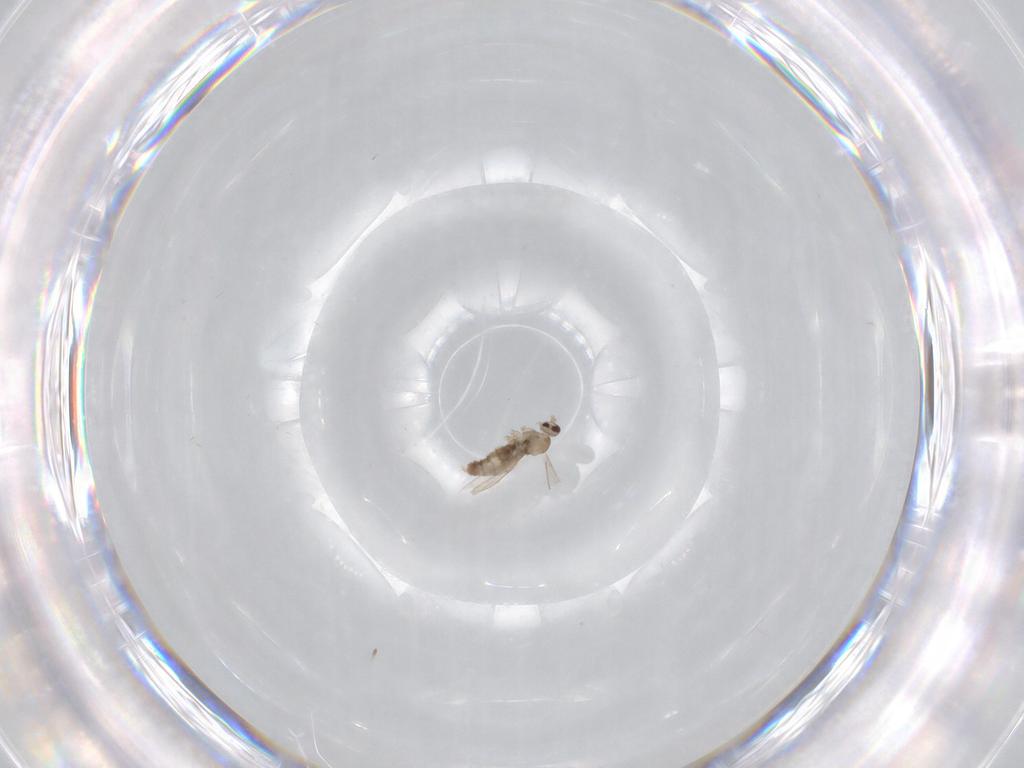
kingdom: Animalia
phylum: Arthropoda
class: Insecta
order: Diptera
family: Cecidomyiidae
